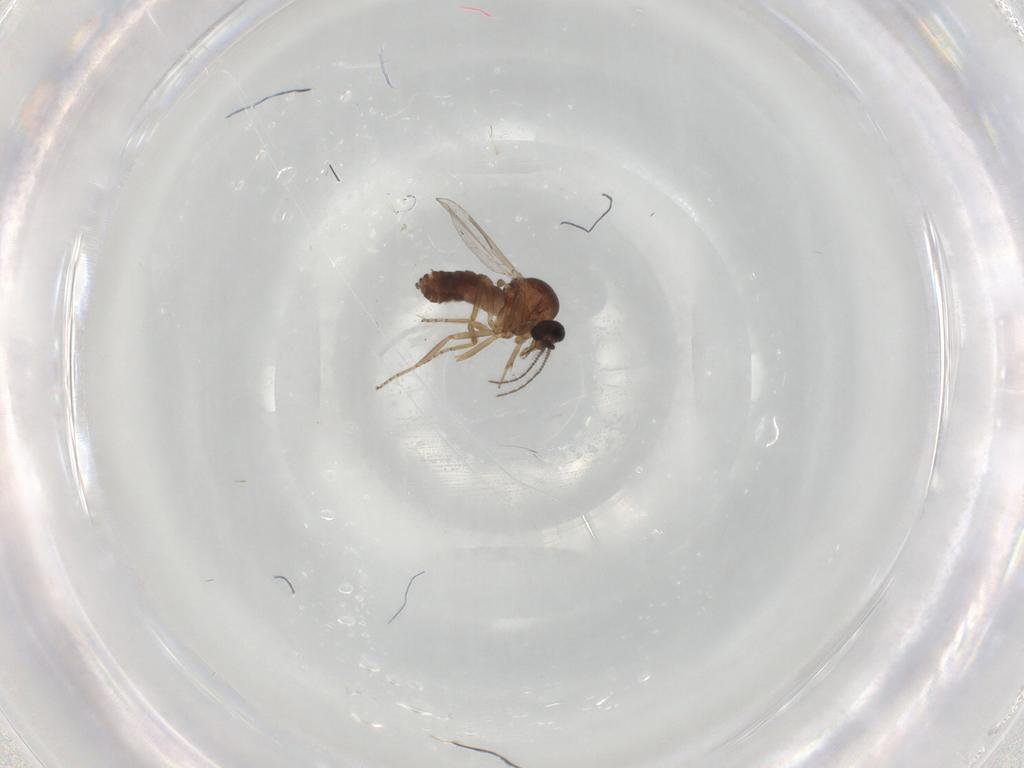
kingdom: Animalia
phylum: Arthropoda
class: Insecta
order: Diptera
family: Ceratopogonidae
